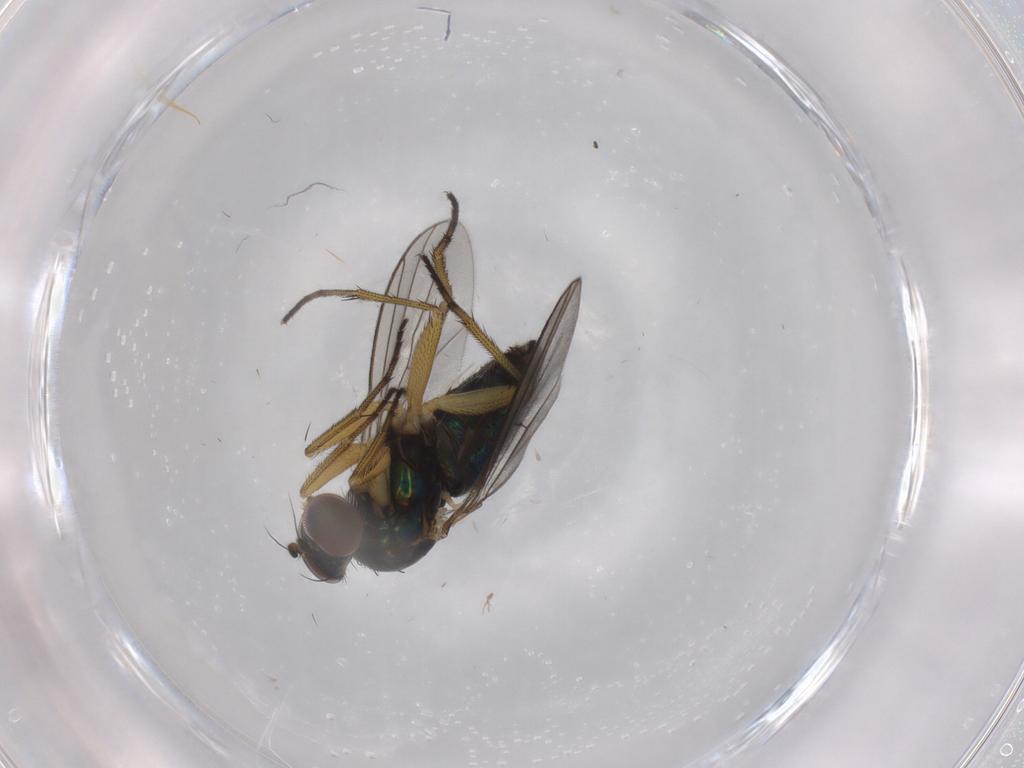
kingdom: Animalia
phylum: Arthropoda
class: Insecta
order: Diptera
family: Dolichopodidae
